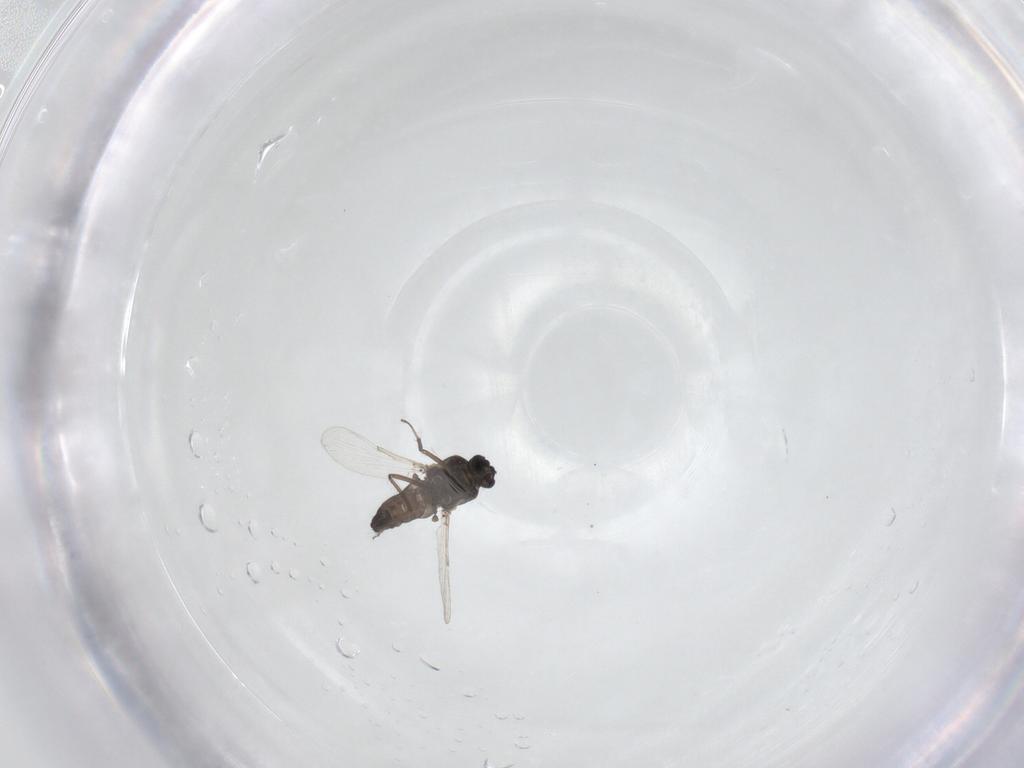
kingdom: Animalia
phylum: Arthropoda
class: Insecta
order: Diptera
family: Ceratopogonidae
